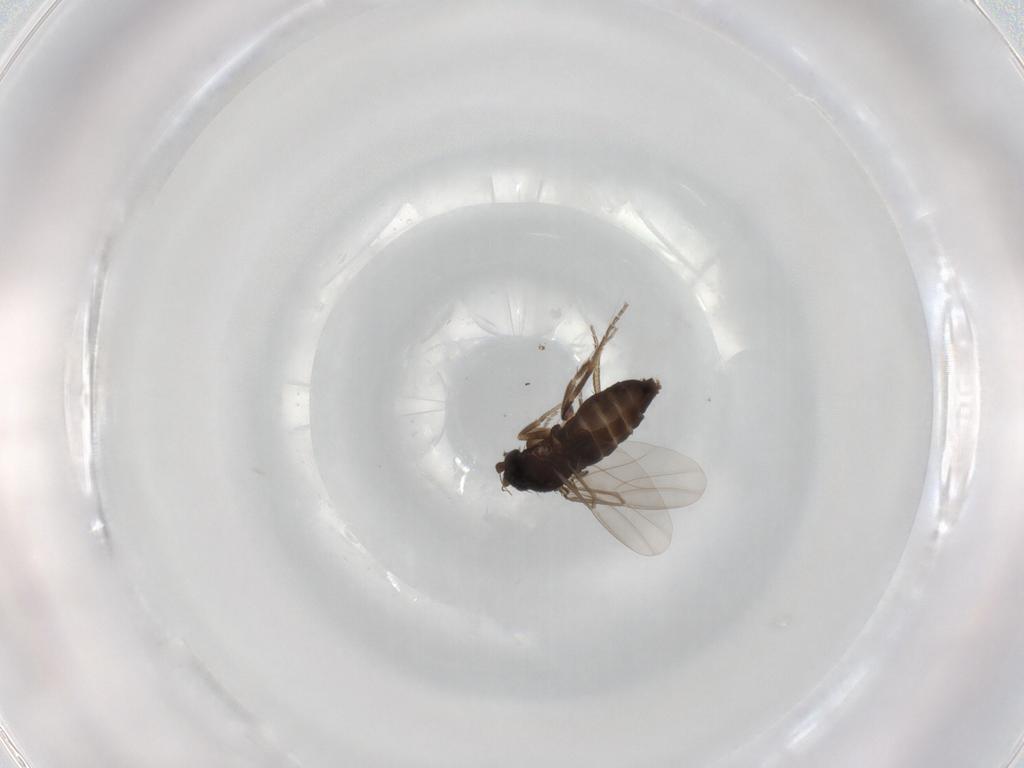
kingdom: Animalia
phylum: Arthropoda
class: Insecta
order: Diptera
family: Phoridae
